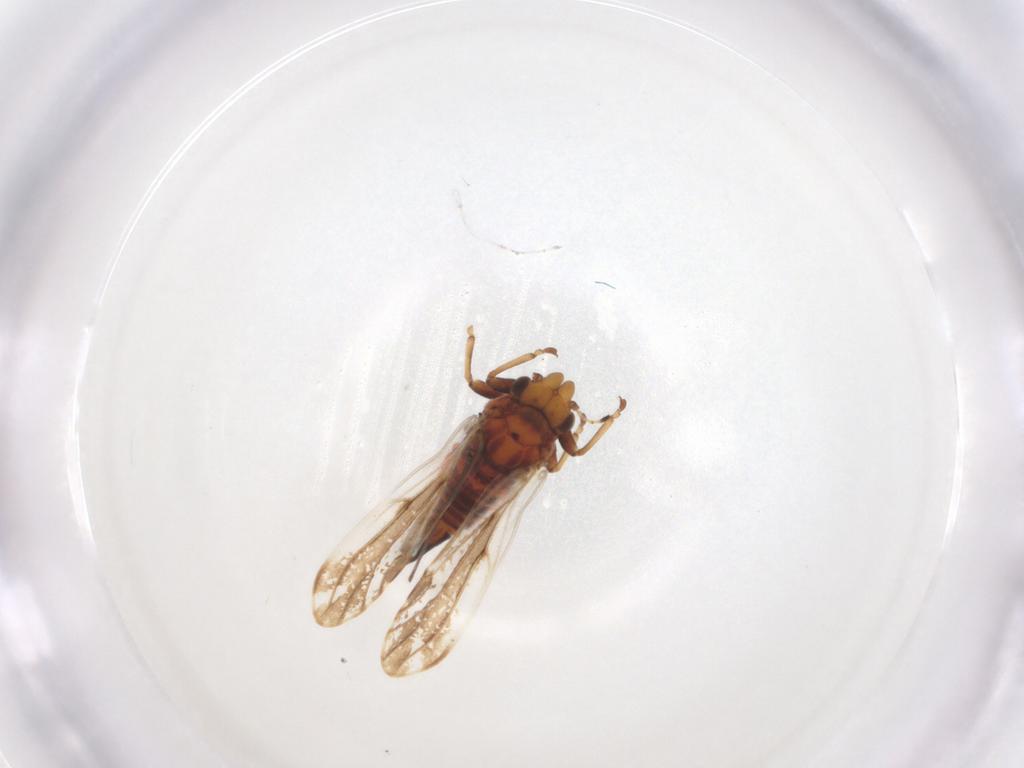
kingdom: Animalia
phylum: Arthropoda
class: Insecta
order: Hemiptera
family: Psylloidea_incertae_sedis
